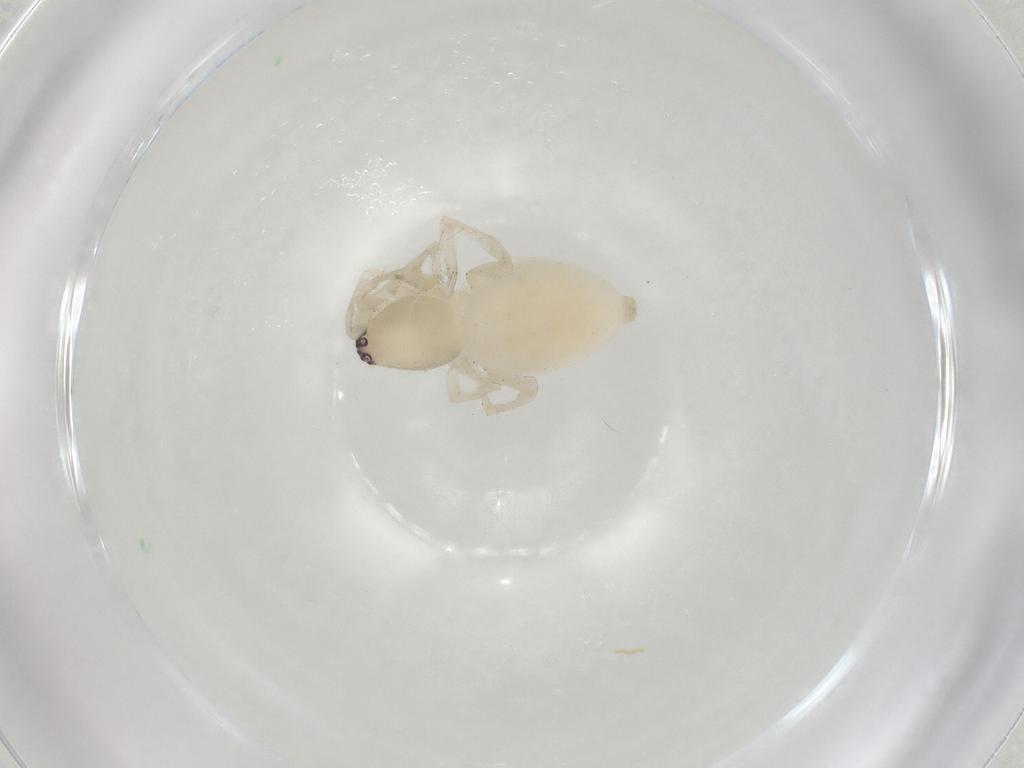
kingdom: Animalia
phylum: Arthropoda
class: Arachnida
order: Araneae
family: Clubionidae
